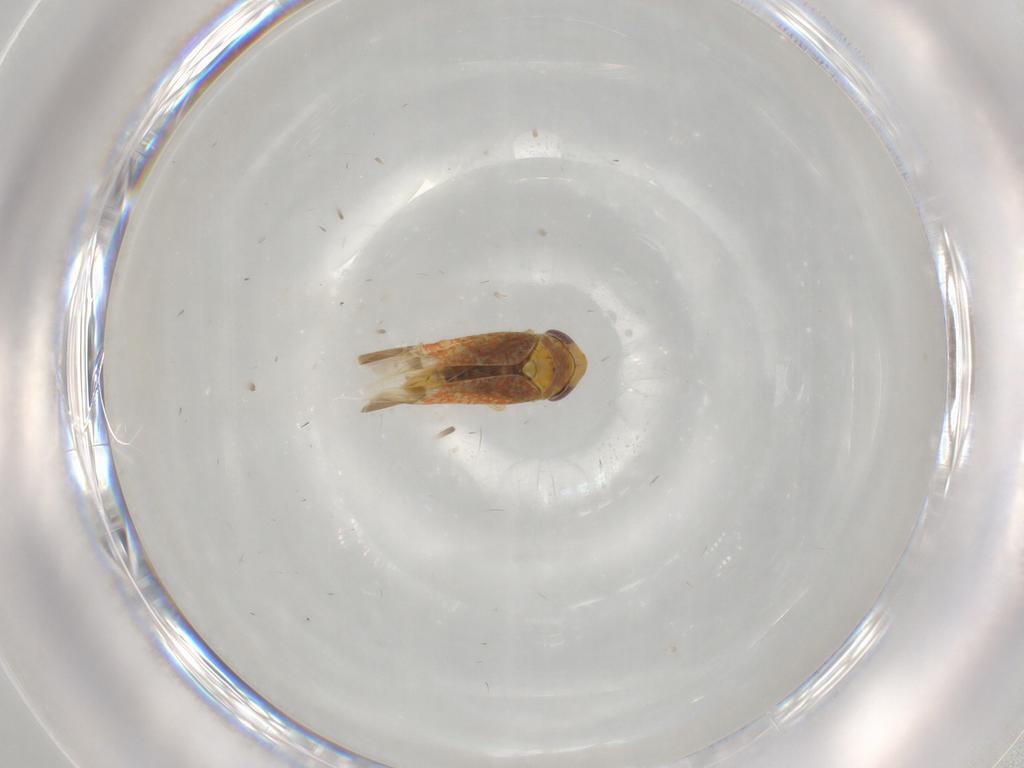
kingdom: Animalia
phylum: Arthropoda
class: Insecta
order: Hemiptera
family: Cicadellidae
